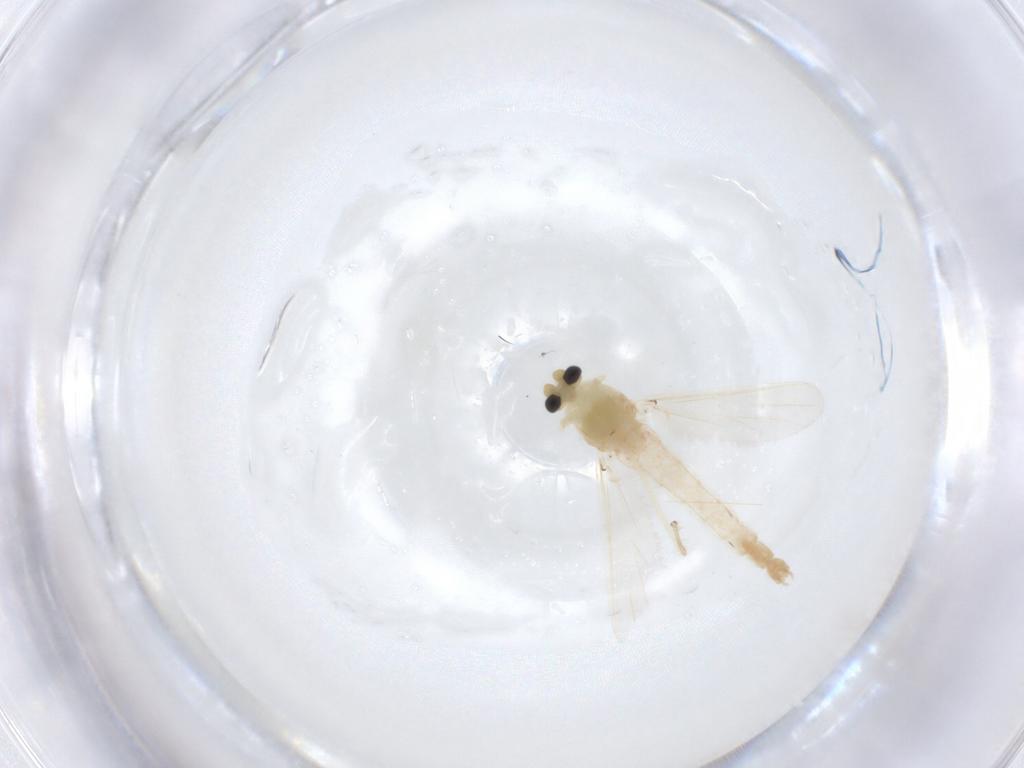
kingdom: Animalia
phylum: Arthropoda
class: Insecta
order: Diptera
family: Chironomidae
